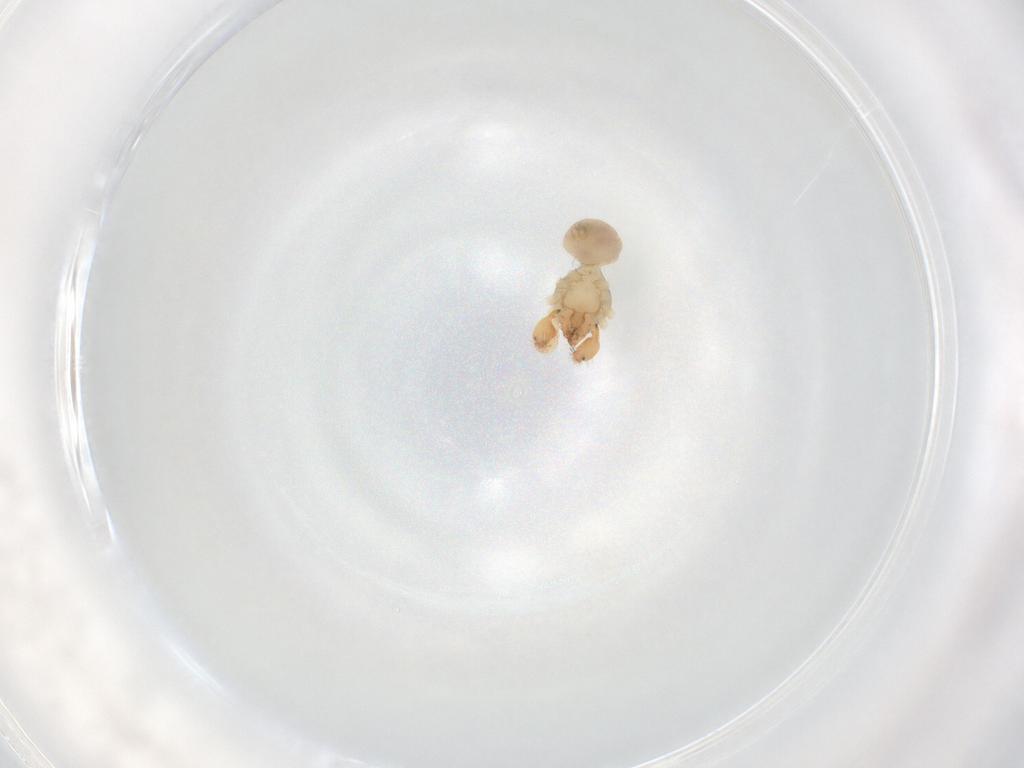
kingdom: Animalia
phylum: Arthropoda
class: Arachnida
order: Araneae
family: Oonopidae
